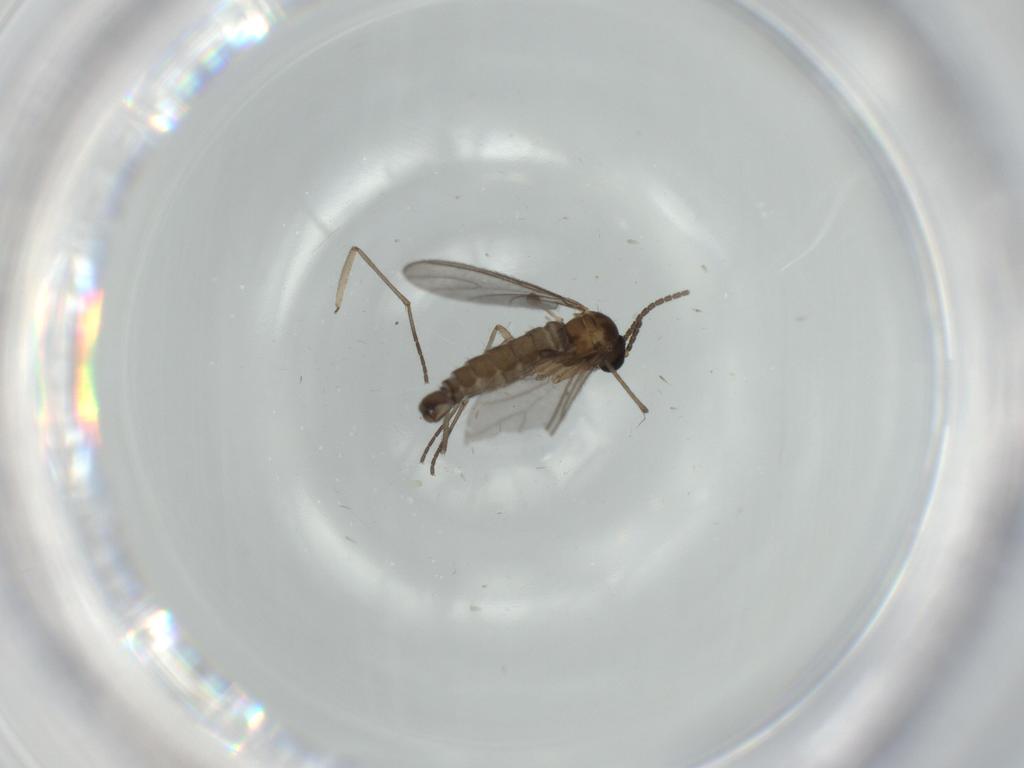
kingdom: Animalia
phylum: Arthropoda
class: Insecta
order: Diptera
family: Sciaridae
